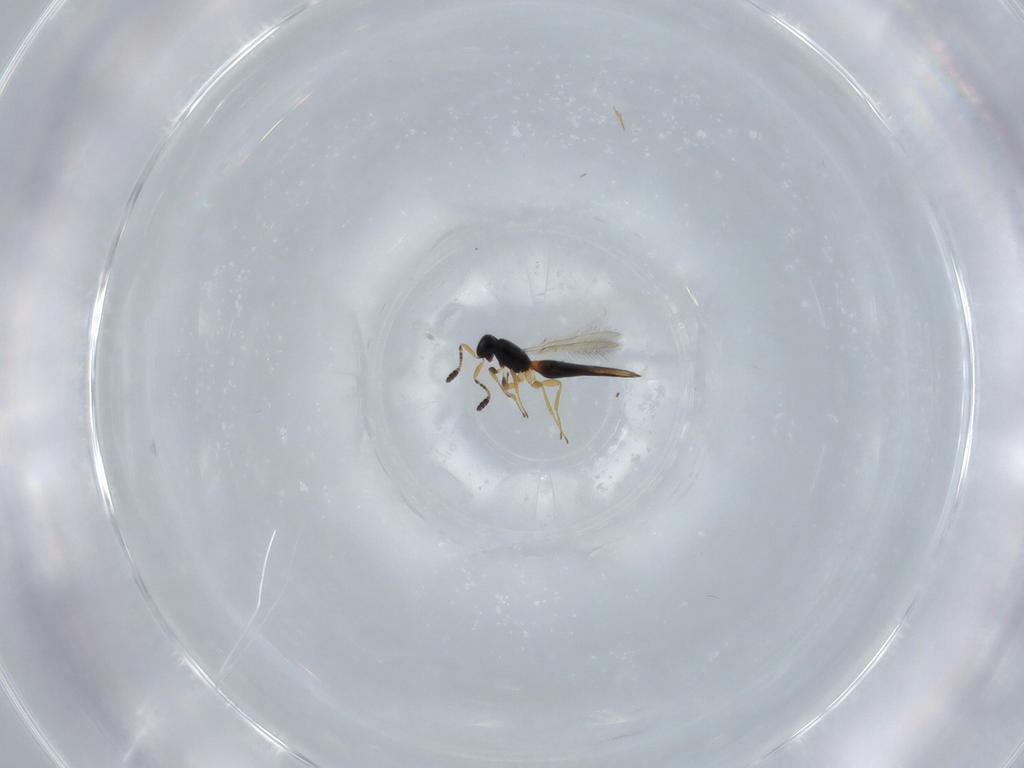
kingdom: Animalia
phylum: Arthropoda
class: Insecta
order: Hymenoptera
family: Scelionidae
